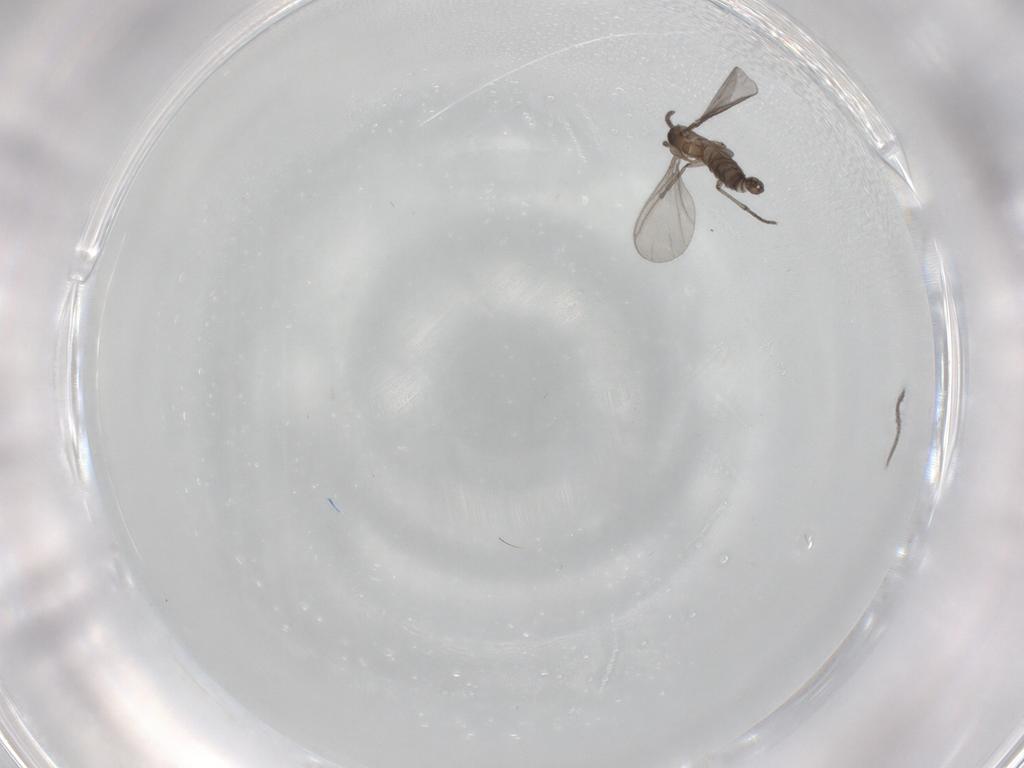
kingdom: Animalia
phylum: Arthropoda
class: Insecta
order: Diptera
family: Sciaridae
